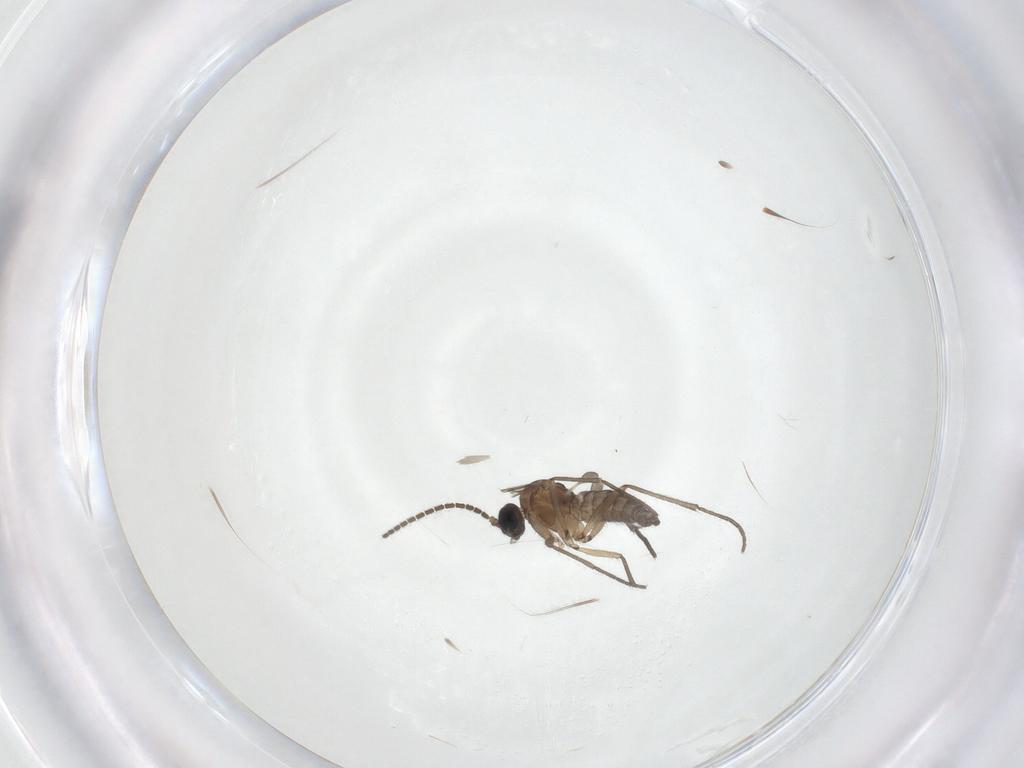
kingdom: Animalia
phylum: Arthropoda
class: Insecta
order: Diptera
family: Sciaridae
